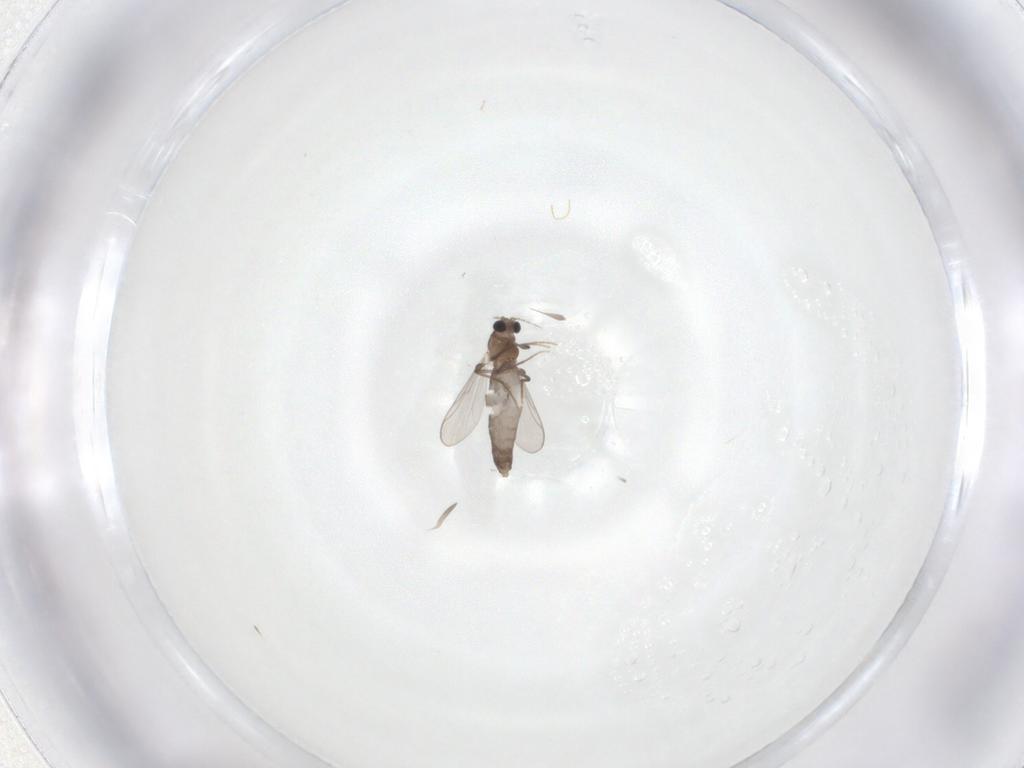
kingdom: Animalia
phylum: Arthropoda
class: Insecta
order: Diptera
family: Chironomidae
